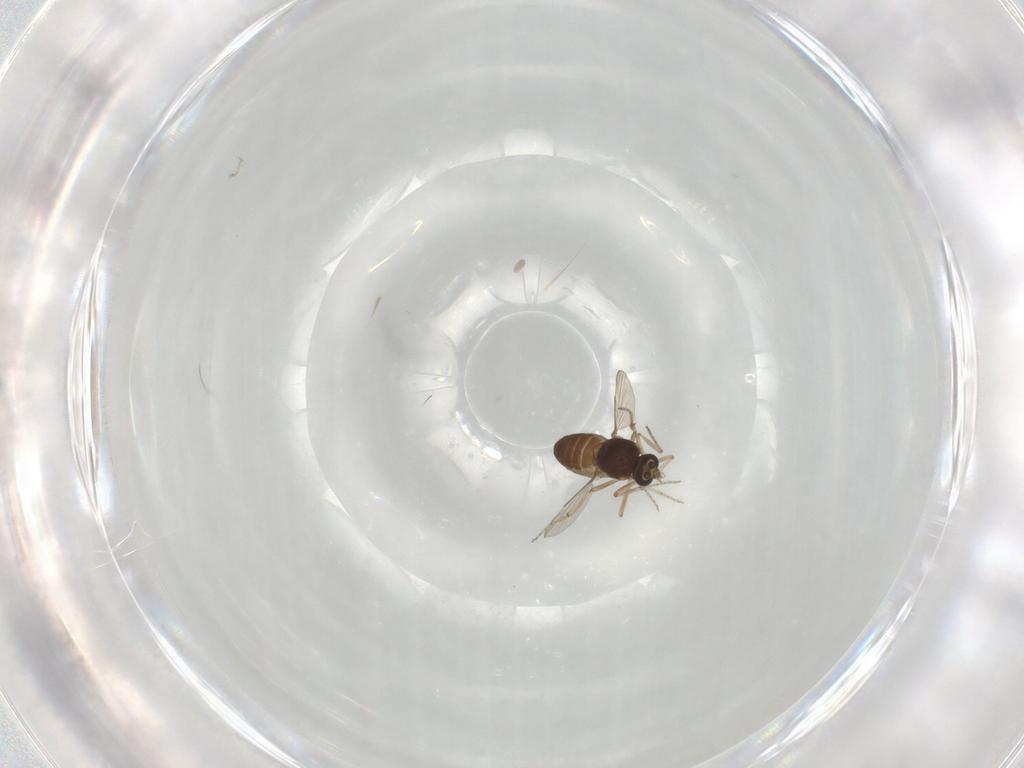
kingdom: Animalia
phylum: Arthropoda
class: Insecta
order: Diptera
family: Ceratopogonidae
